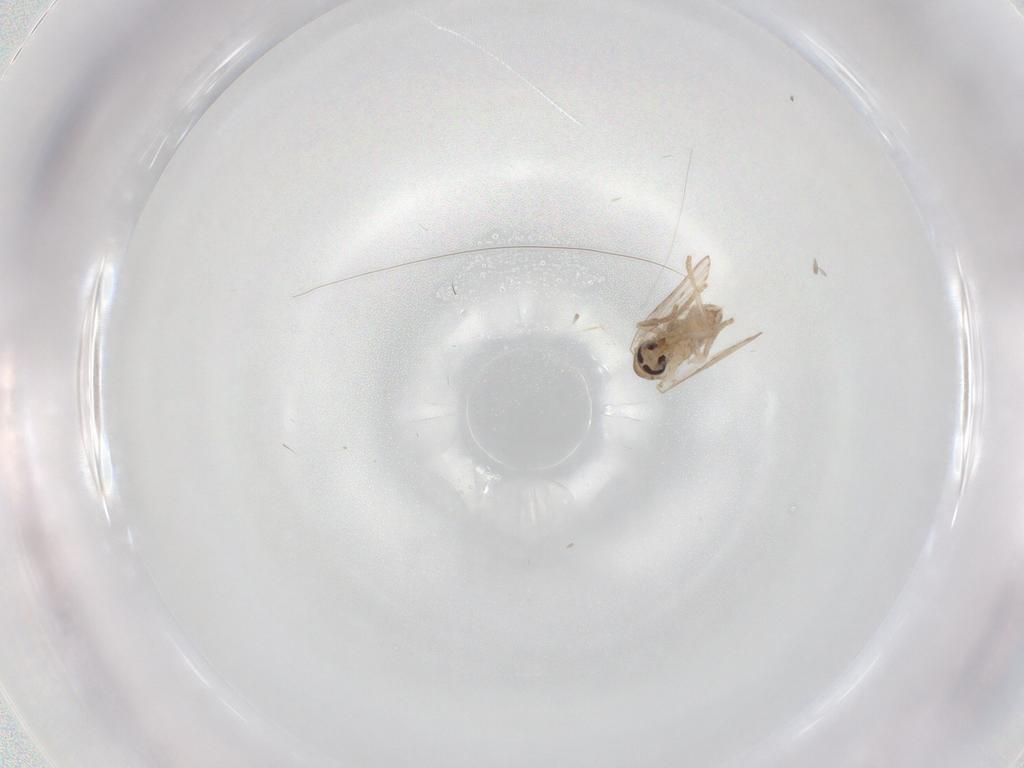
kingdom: Animalia
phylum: Arthropoda
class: Insecta
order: Diptera
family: Psychodidae
